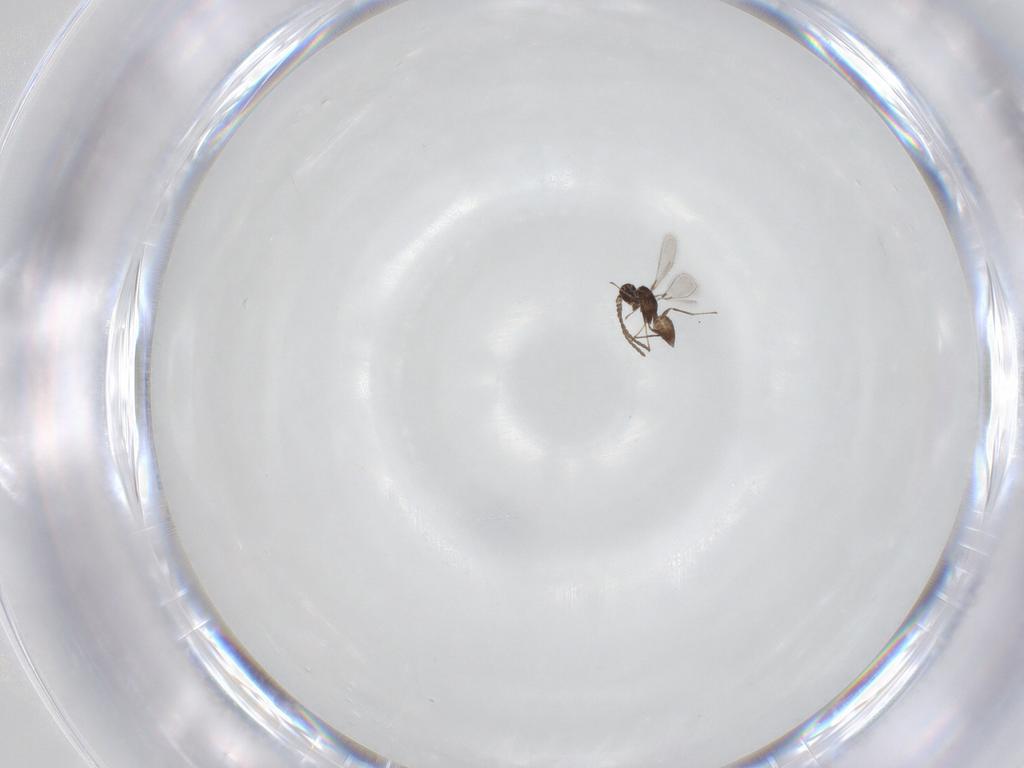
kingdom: Animalia
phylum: Arthropoda
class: Insecta
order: Hymenoptera
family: Mymaridae
